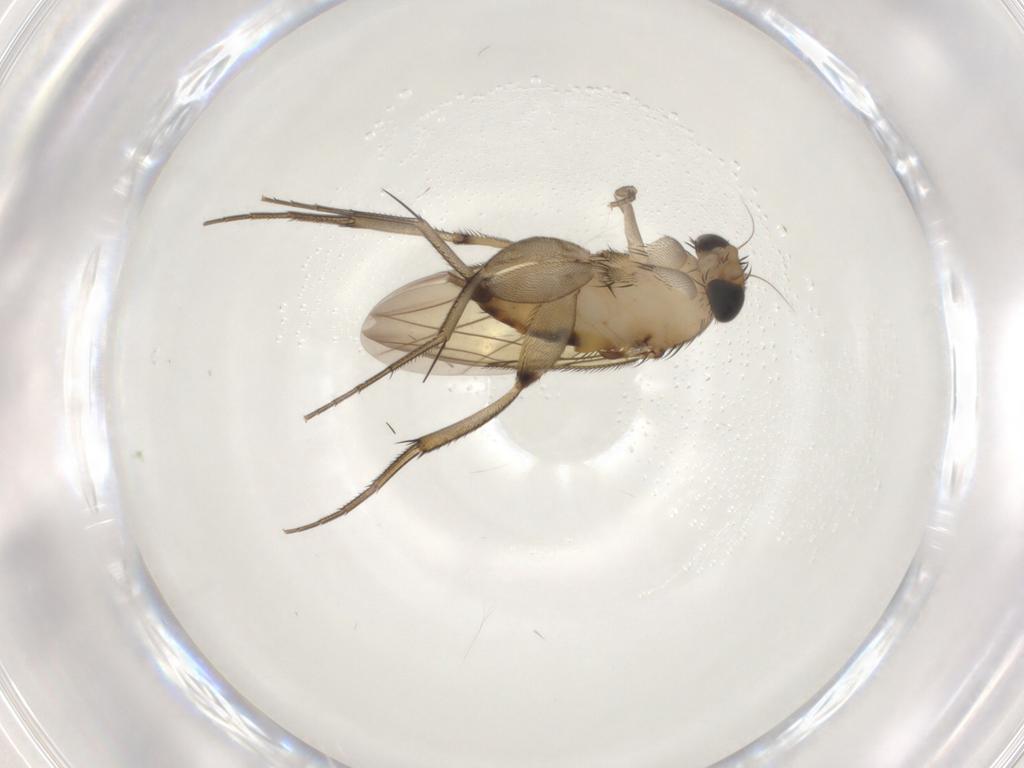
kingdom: Animalia
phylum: Arthropoda
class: Insecta
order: Diptera
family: Phoridae
